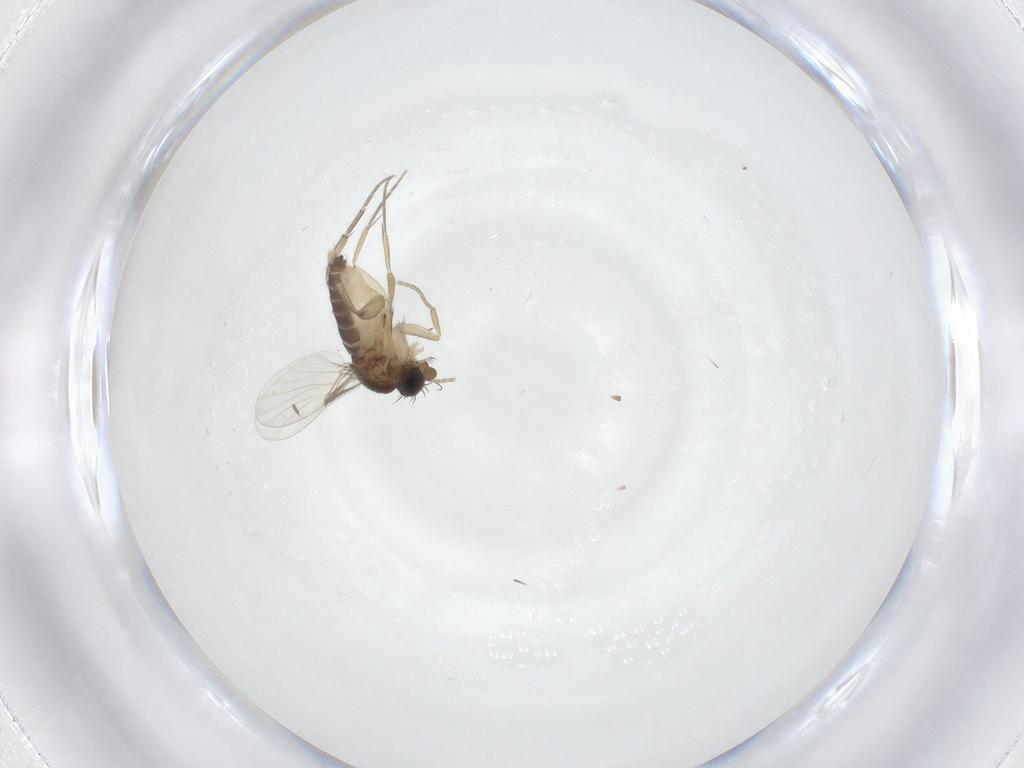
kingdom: Animalia
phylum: Arthropoda
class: Insecta
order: Diptera
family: Phoridae
